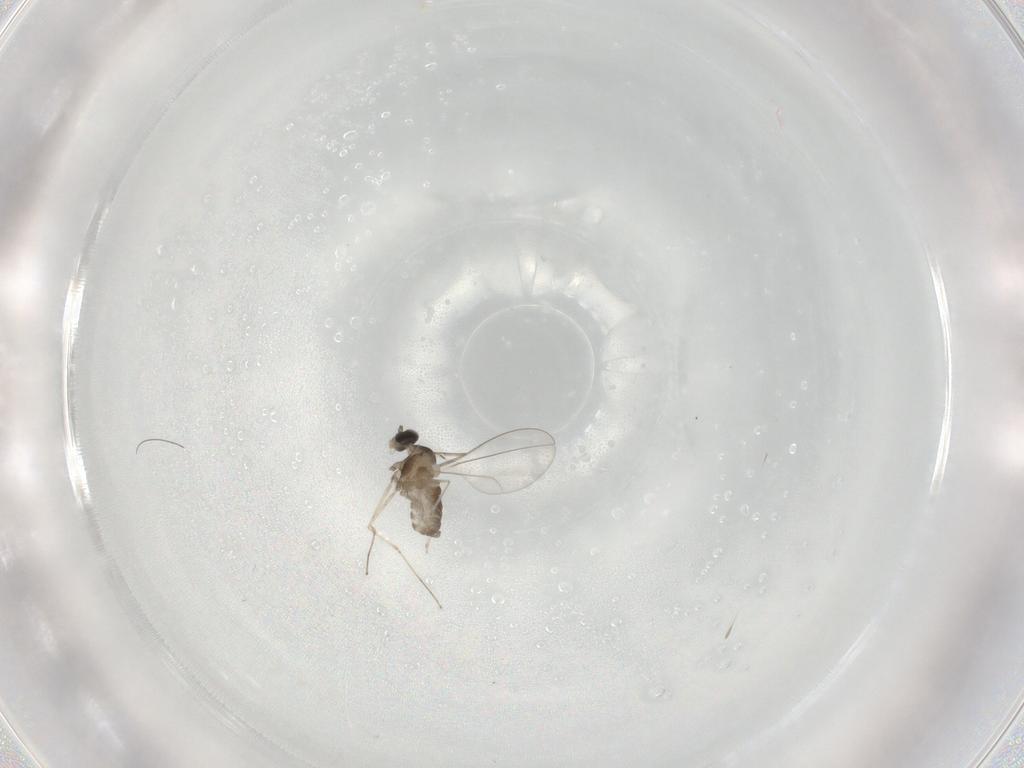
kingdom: Animalia
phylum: Arthropoda
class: Insecta
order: Diptera
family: Cecidomyiidae
